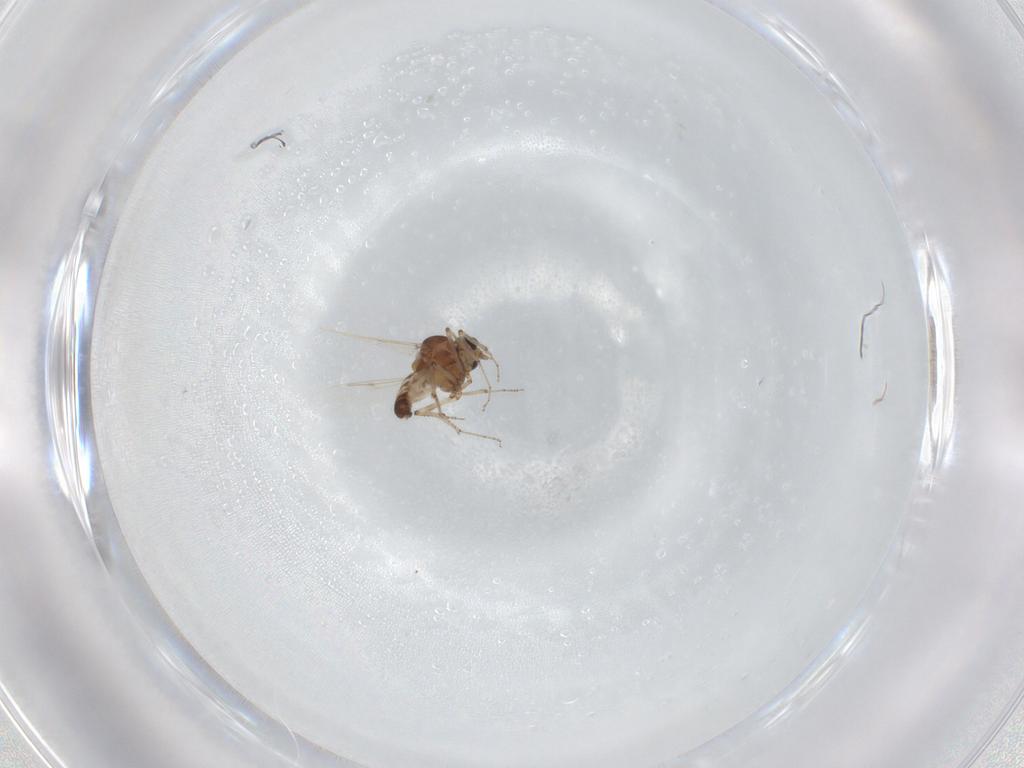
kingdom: Animalia
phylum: Arthropoda
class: Insecta
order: Diptera
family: Ceratopogonidae
